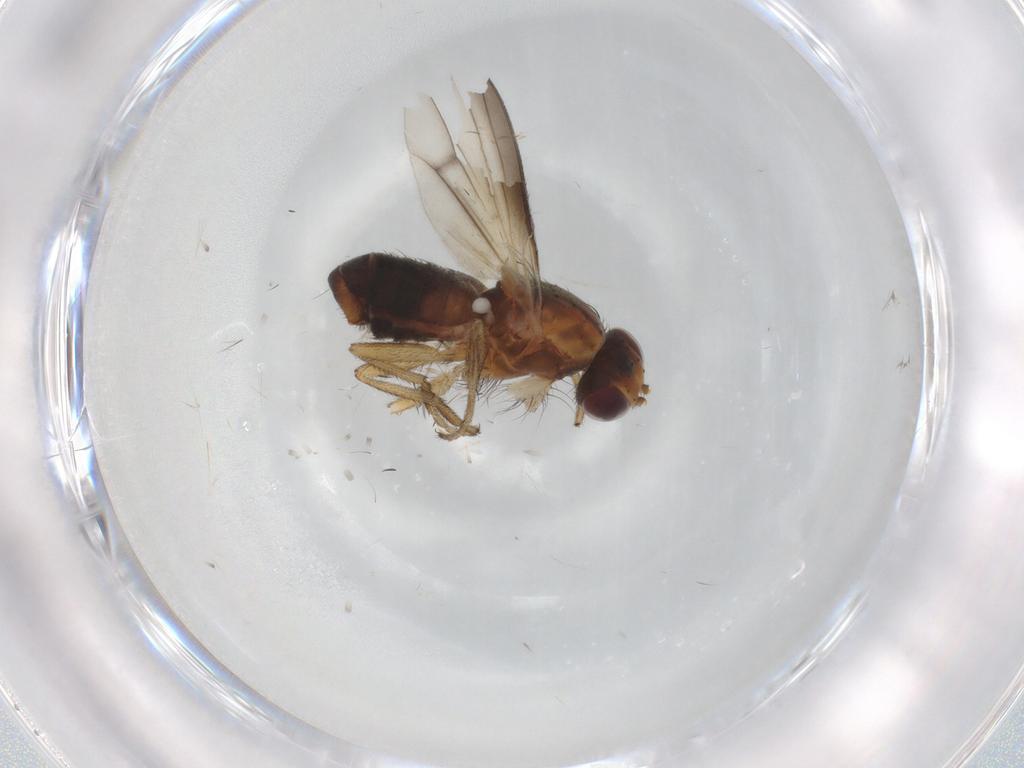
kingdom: Animalia
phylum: Arthropoda
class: Insecta
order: Diptera
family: Heleomyzidae
